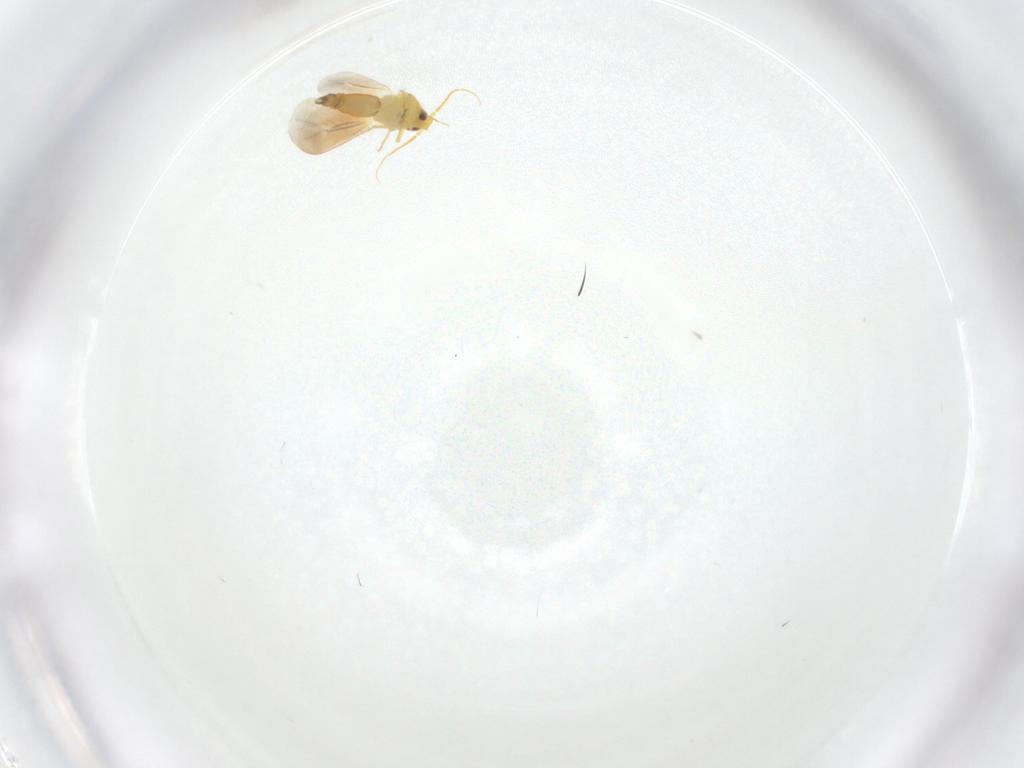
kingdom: Animalia
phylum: Arthropoda
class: Insecta
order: Hemiptera
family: Aleyrodidae
